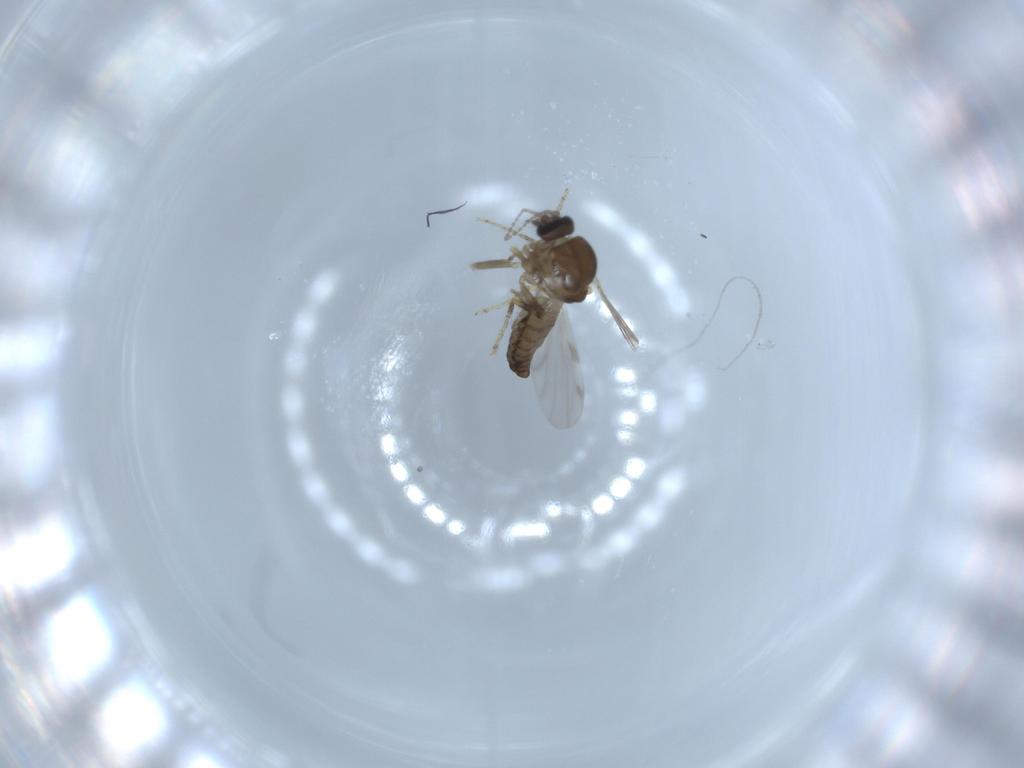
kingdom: Animalia
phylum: Arthropoda
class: Insecta
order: Diptera
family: Ceratopogonidae
